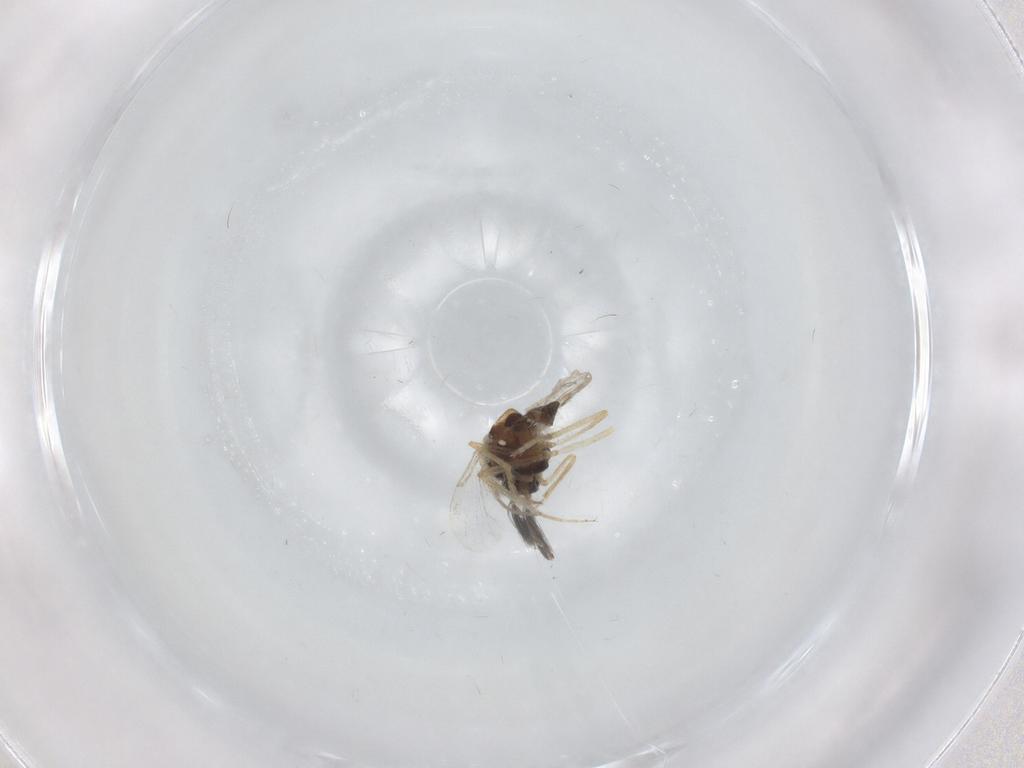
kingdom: Animalia
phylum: Arthropoda
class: Insecta
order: Diptera
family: Ceratopogonidae
